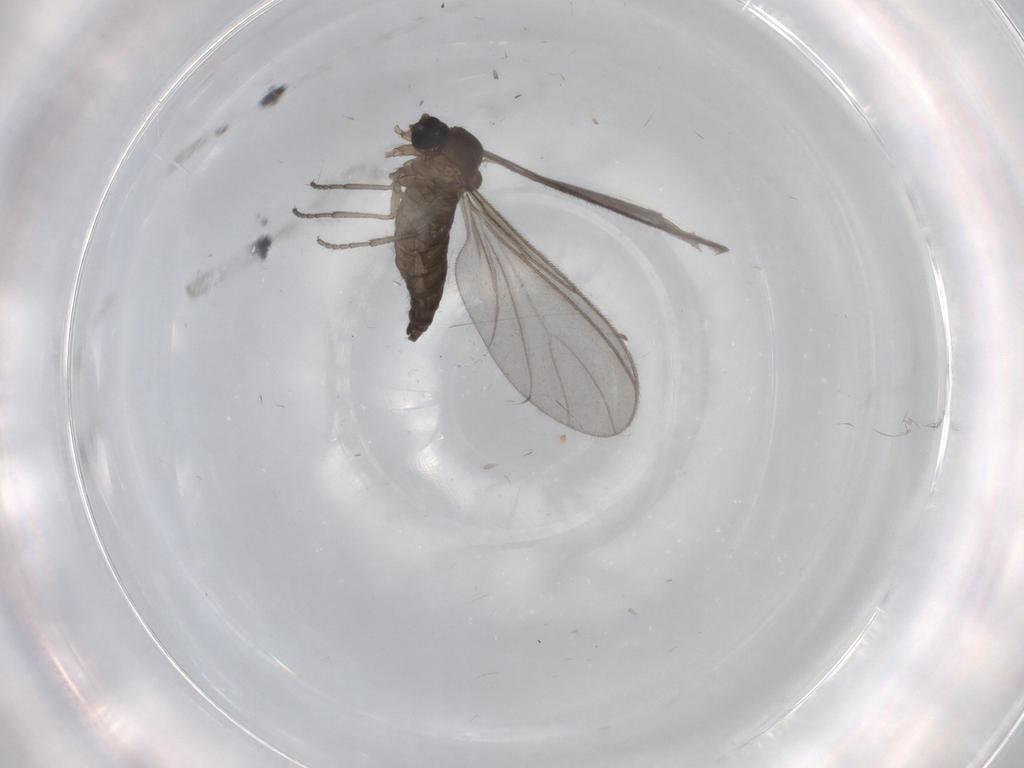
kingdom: Animalia
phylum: Arthropoda
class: Insecta
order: Diptera
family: Sciaridae
